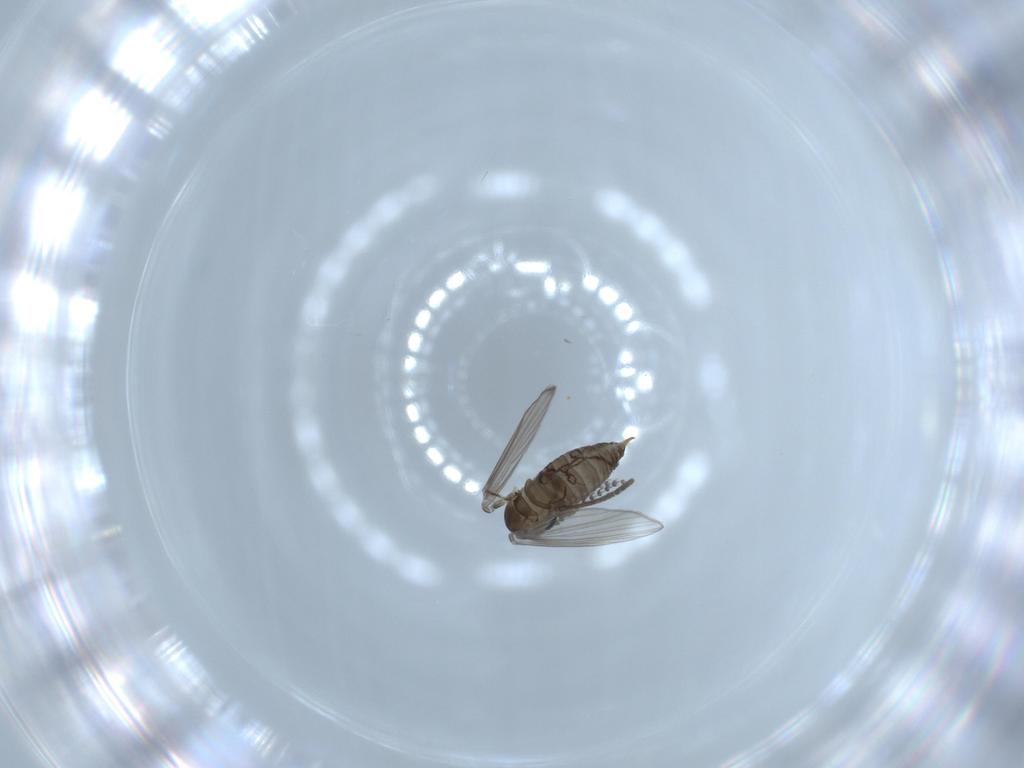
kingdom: Animalia
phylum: Arthropoda
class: Insecta
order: Diptera
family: Psychodidae
